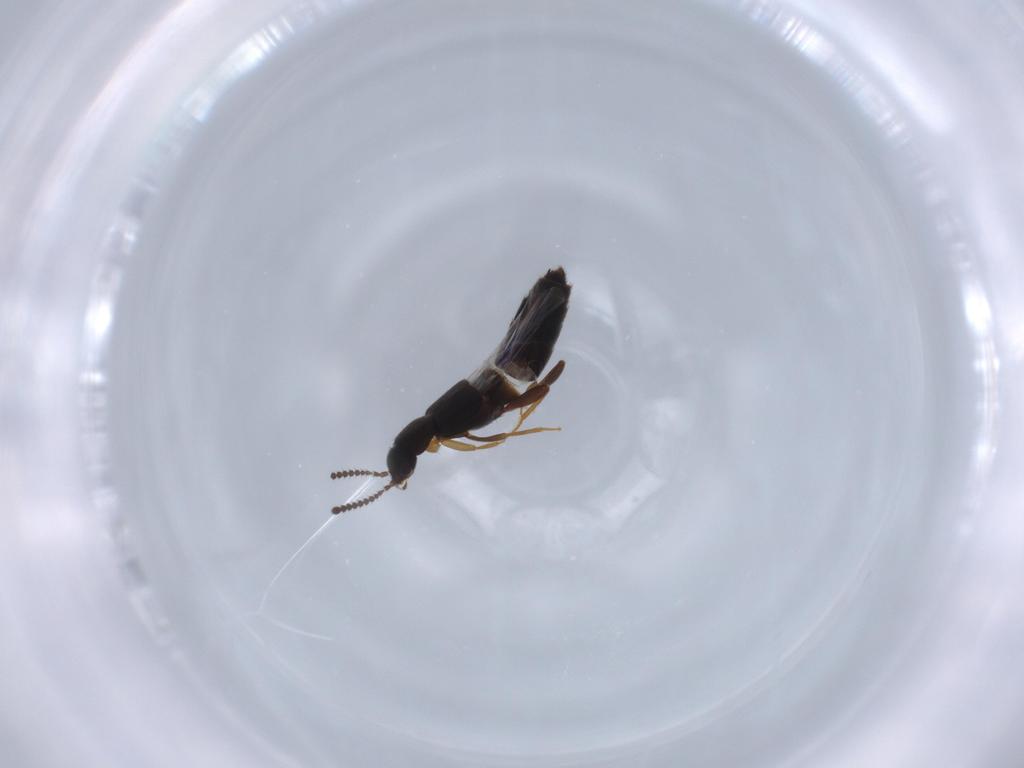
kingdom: Animalia
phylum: Arthropoda
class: Insecta
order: Coleoptera
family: Staphylinidae
